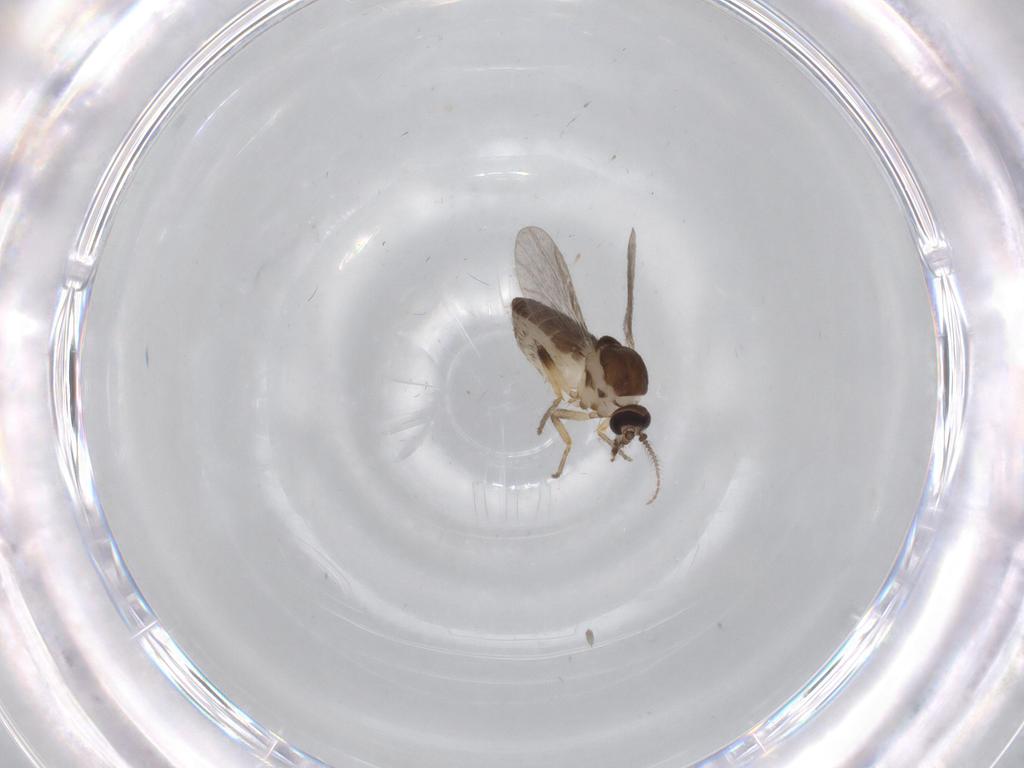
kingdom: Animalia
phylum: Arthropoda
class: Insecta
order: Diptera
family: Ceratopogonidae
